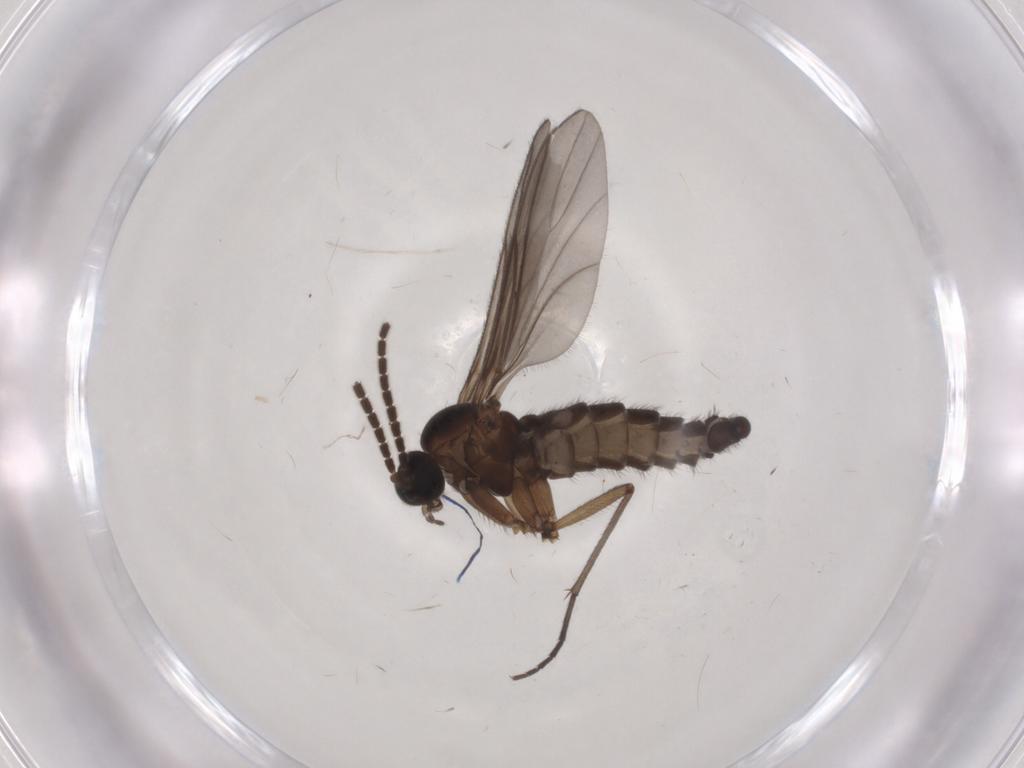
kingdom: Animalia
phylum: Arthropoda
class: Insecta
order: Diptera
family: Sciaridae
